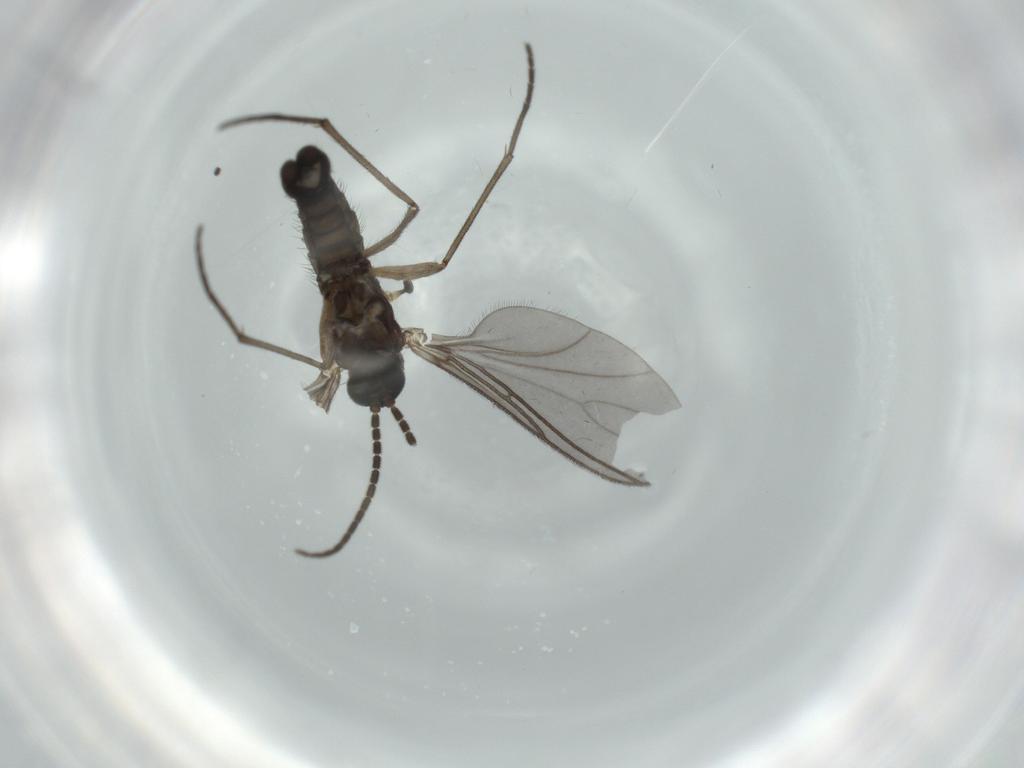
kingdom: Animalia
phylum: Arthropoda
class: Insecta
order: Diptera
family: Sciaridae
